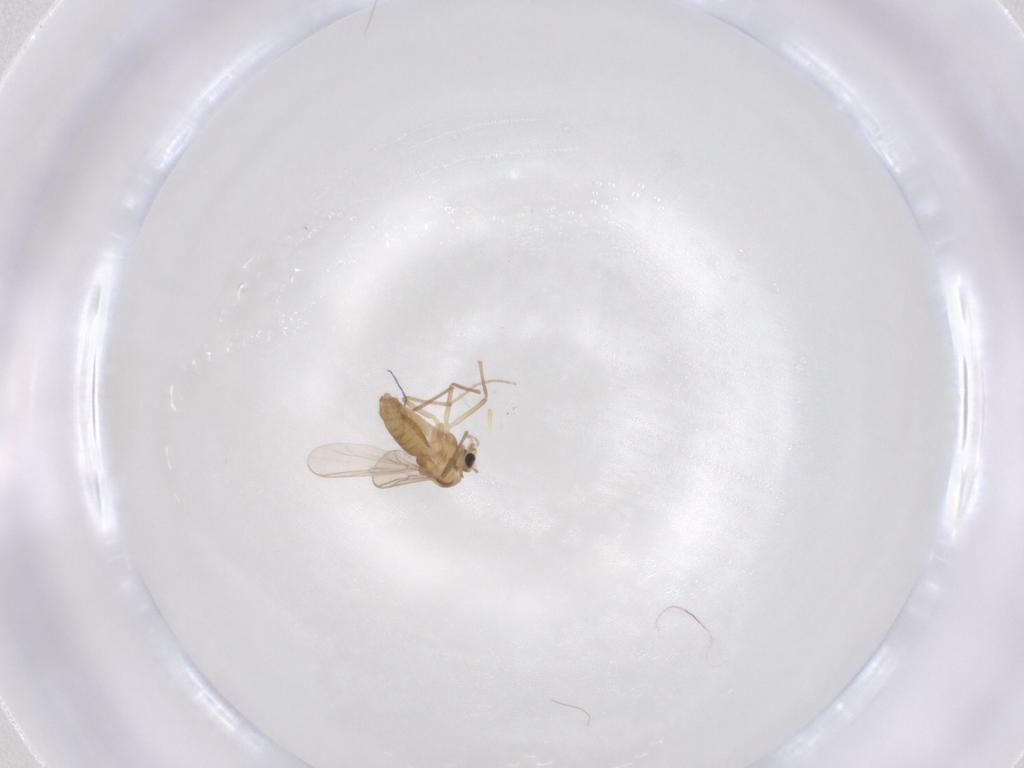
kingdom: Animalia
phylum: Arthropoda
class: Insecta
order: Diptera
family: Chironomidae
